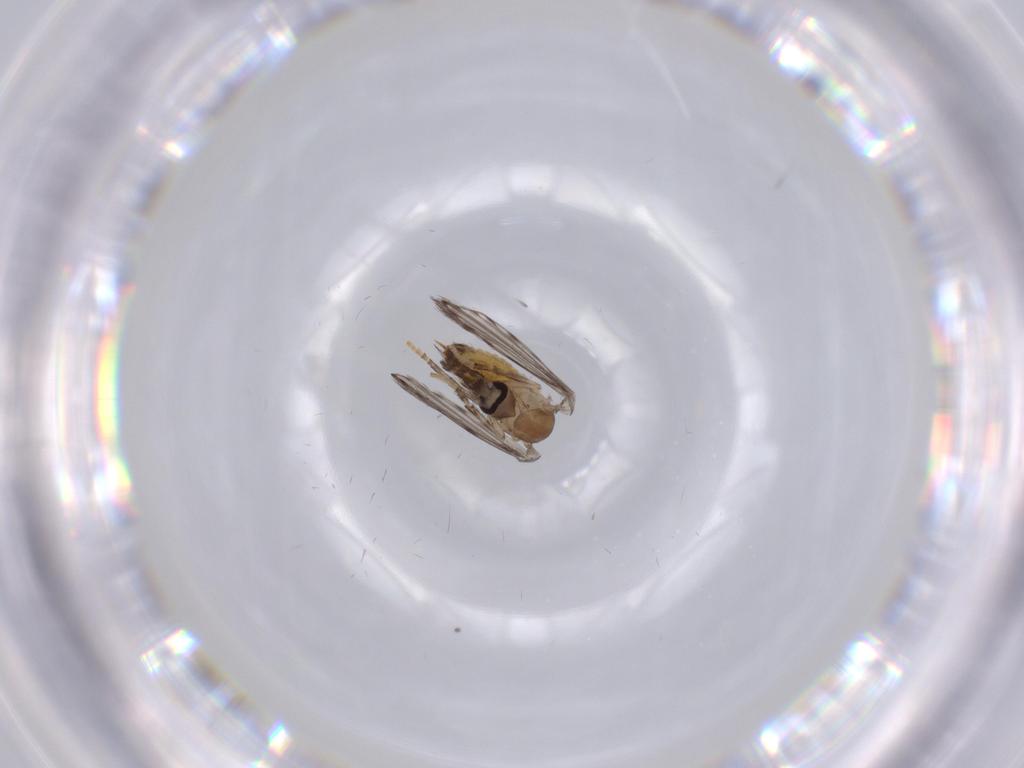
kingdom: Animalia
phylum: Arthropoda
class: Insecta
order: Diptera
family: Psychodidae
